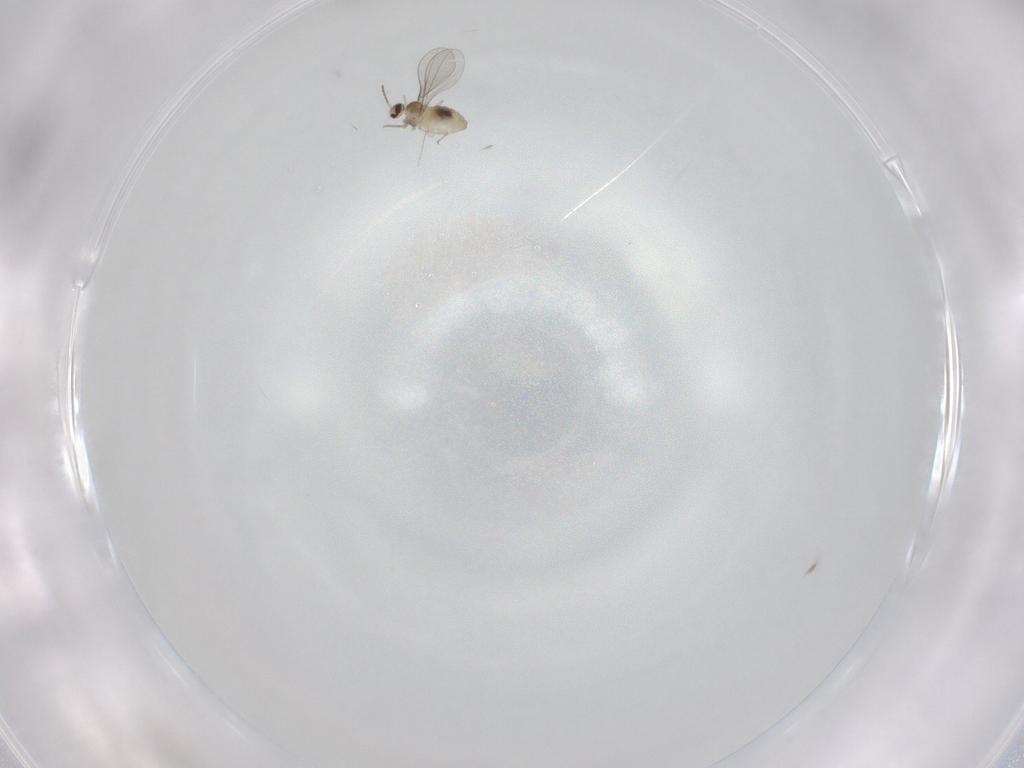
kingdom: Animalia
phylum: Arthropoda
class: Insecta
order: Diptera
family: Cecidomyiidae
